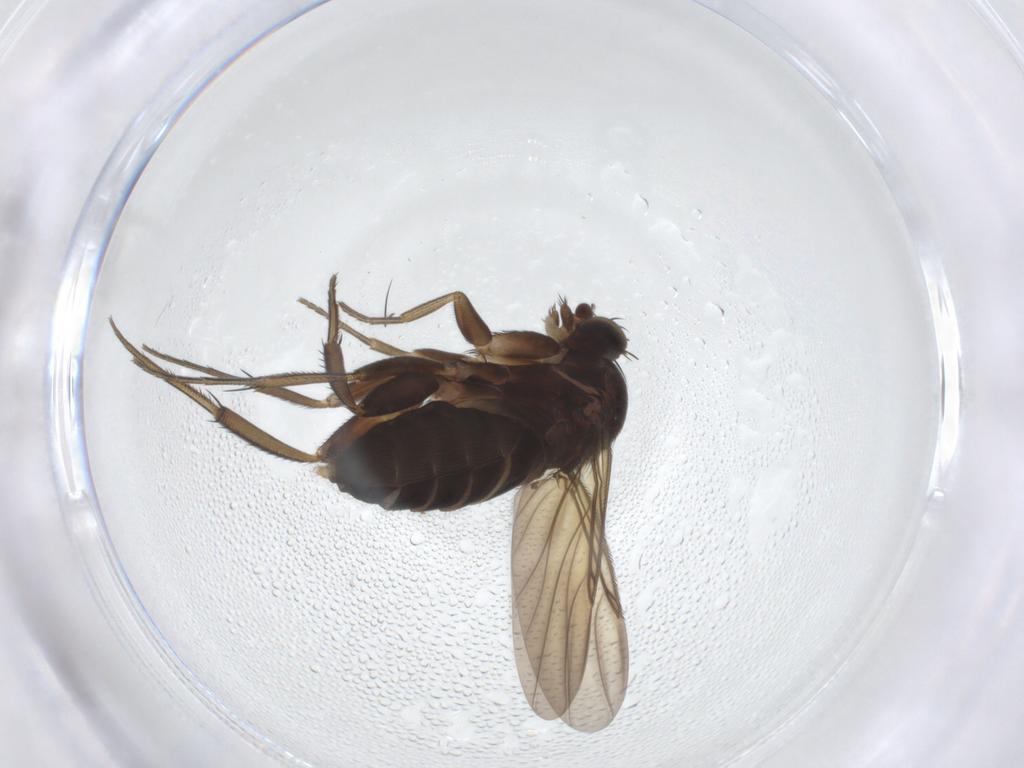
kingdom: Animalia
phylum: Arthropoda
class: Insecta
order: Diptera
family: Phoridae
